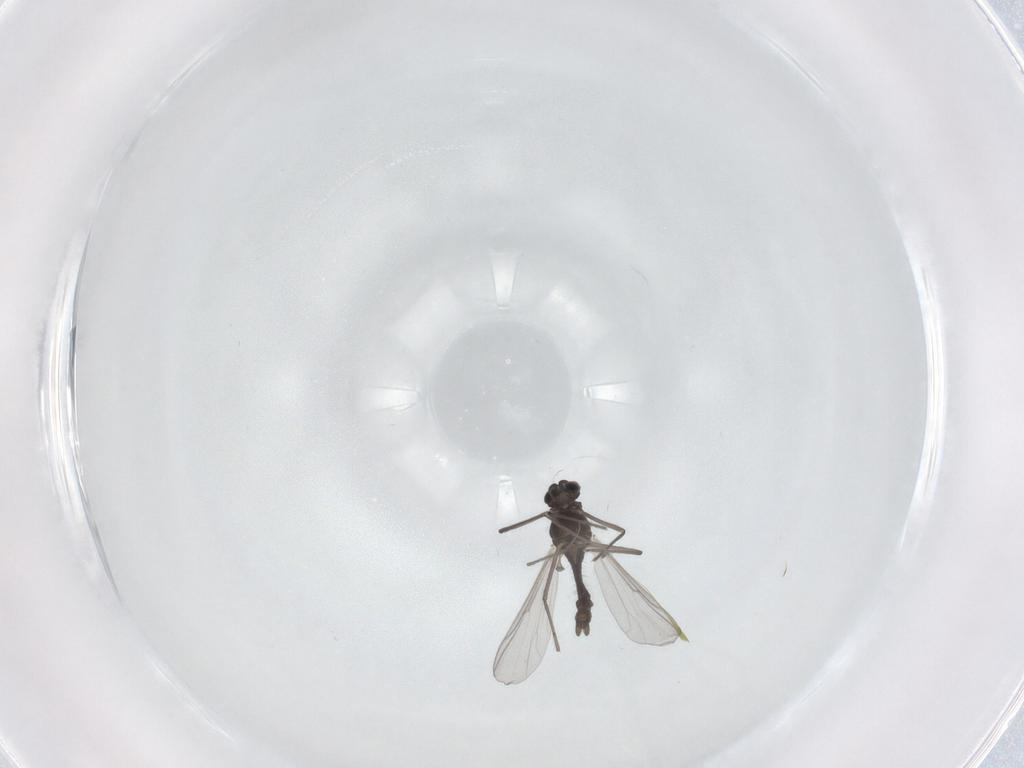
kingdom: Animalia
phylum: Arthropoda
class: Insecta
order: Diptera
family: Chironomidae
